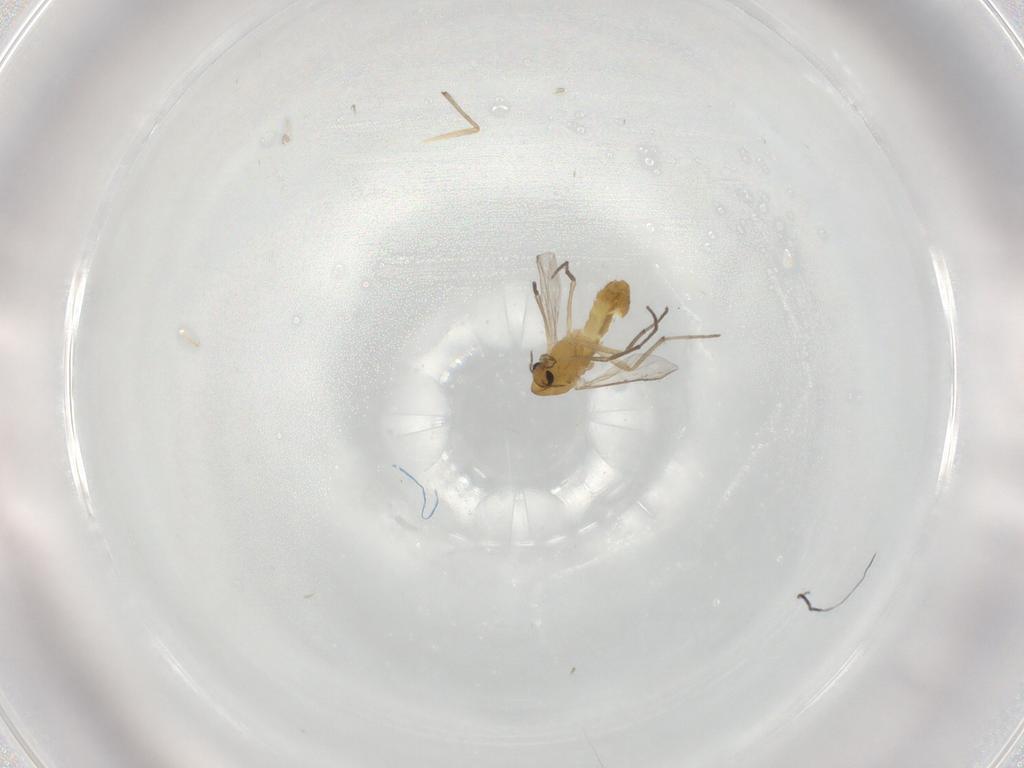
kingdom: Animalia
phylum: Arthropoda
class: Insecta
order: Diptera
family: Chironomidae
